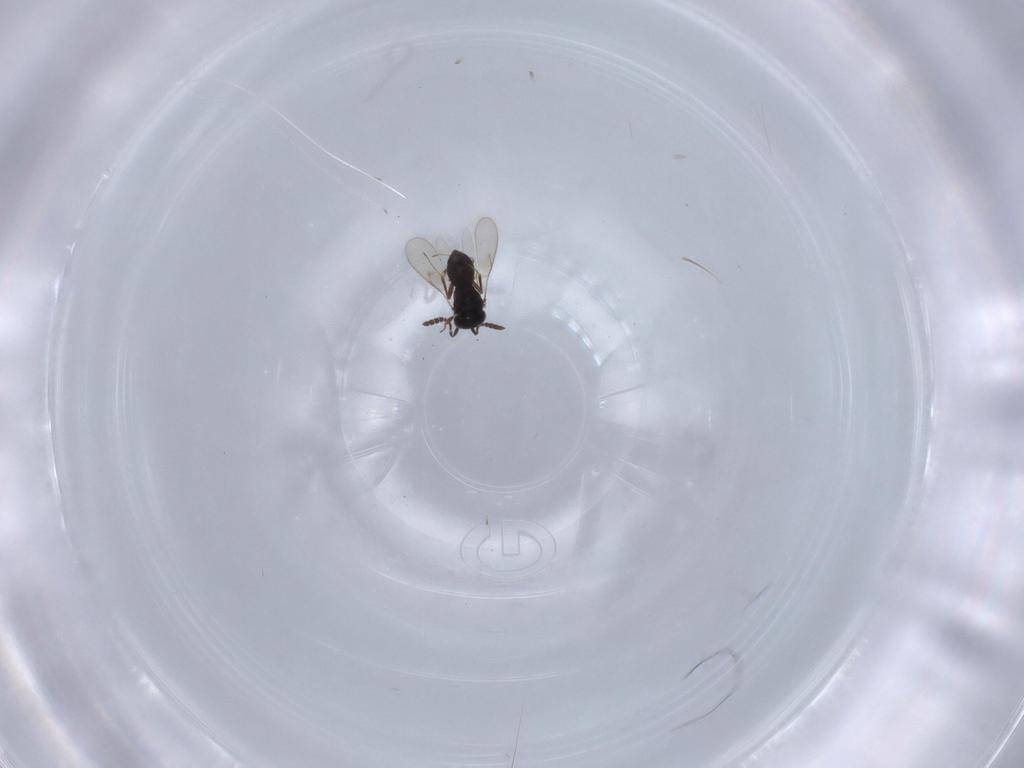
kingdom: Animalia
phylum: Arthropoda
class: Insecta
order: Hymenoptera
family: Scelionidae
